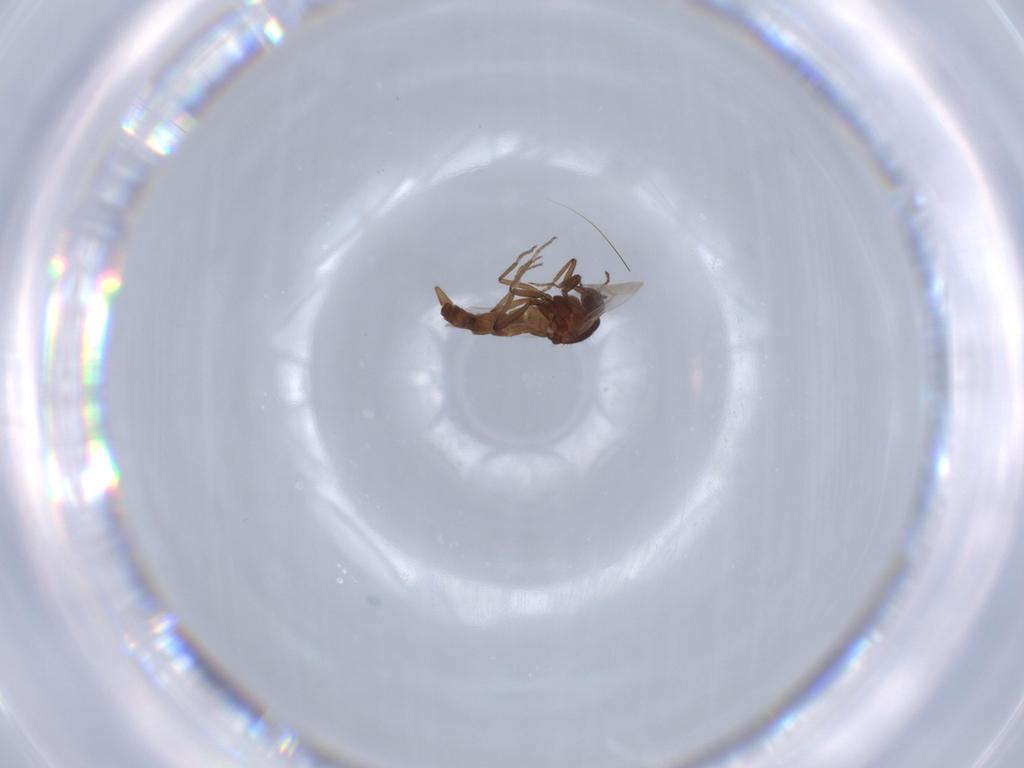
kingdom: Animalia
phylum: Arthropoda
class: Insecta
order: Diptera
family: Ceratopogonidae
